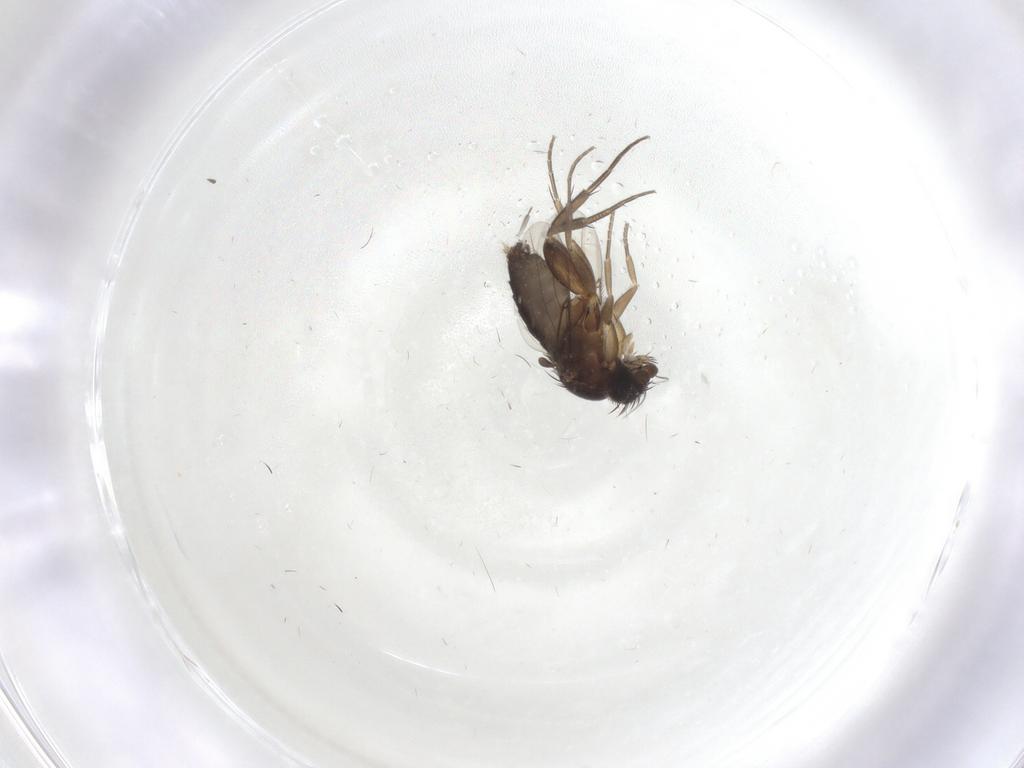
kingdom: Animalia
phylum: Arthropoda
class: Insecta
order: Diptera
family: Phoridae
